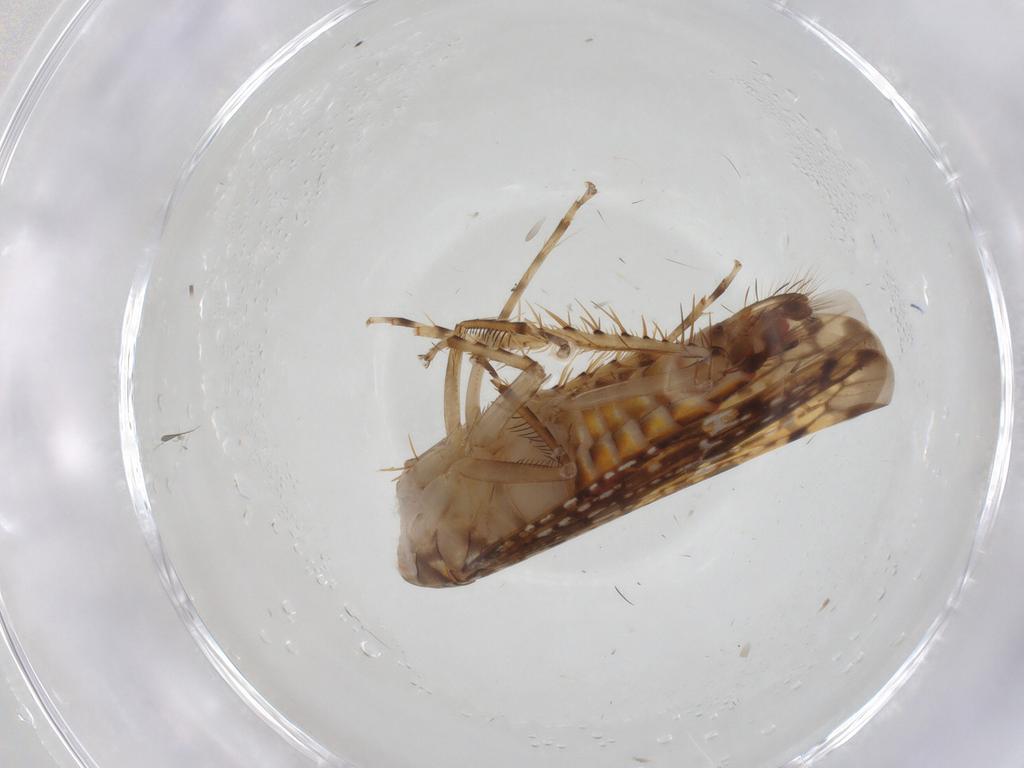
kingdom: Animalia
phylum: Arthropoda
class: Insecta
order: Hemiptera
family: Cicadellidae
